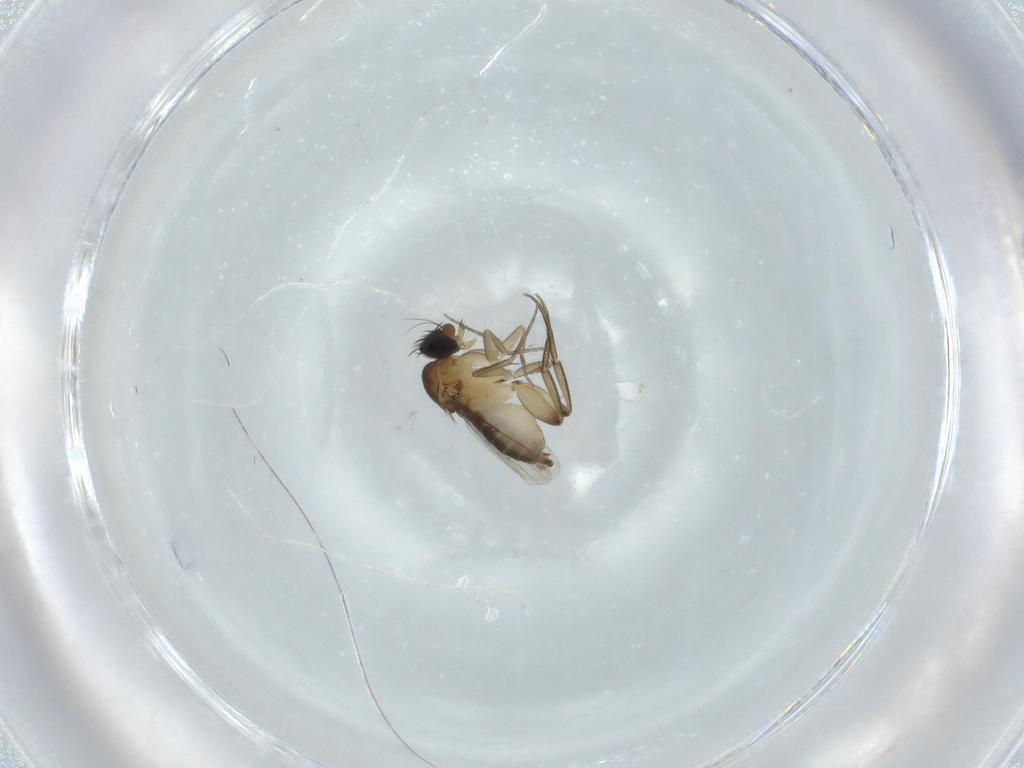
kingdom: Animalia
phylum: Arthropoda
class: Insecta
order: Diptera
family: Phoridae
